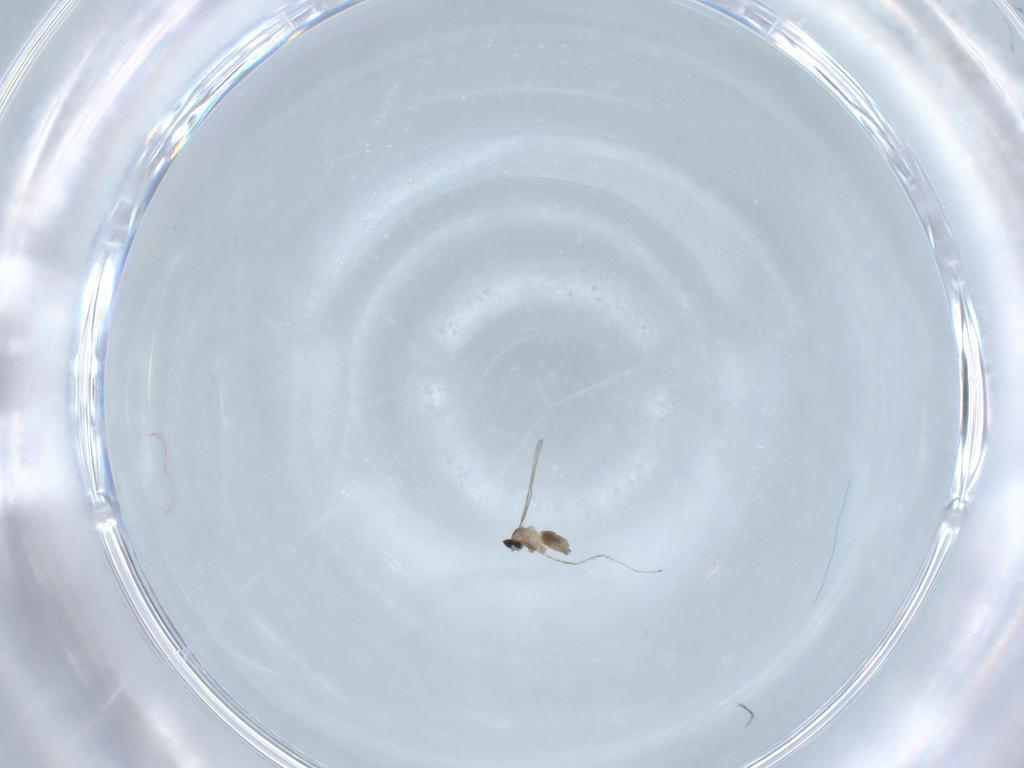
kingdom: Animalia
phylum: Arthropoda
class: Insecta
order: Diptera
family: Cecidomyiidae
